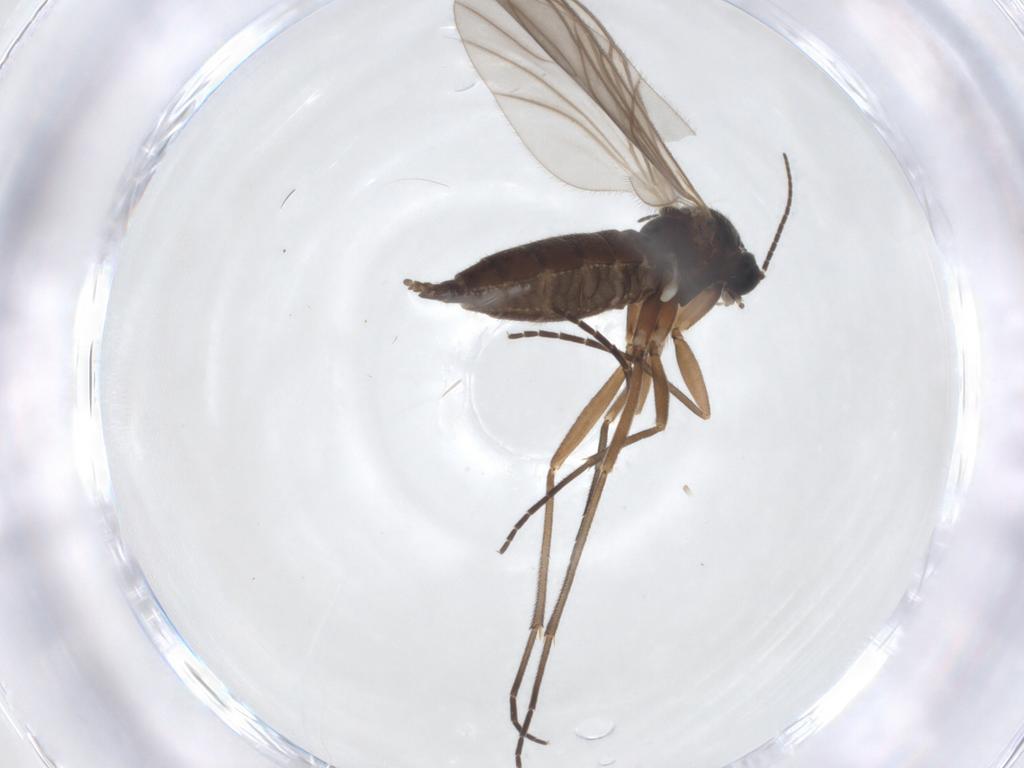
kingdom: Animalia
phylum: Arthropoda
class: Insecta
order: Diptera
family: Sciaridae
